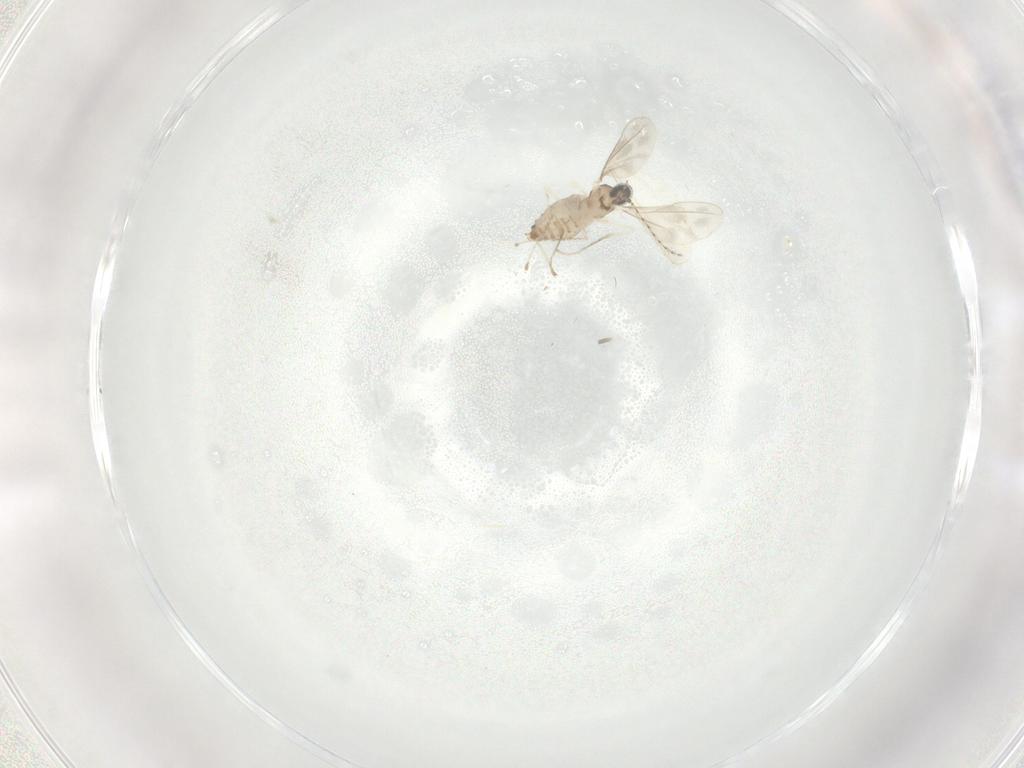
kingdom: Animalia
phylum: Arthropoda
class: Insecta
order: Diptera
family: Cecidomyiidae
